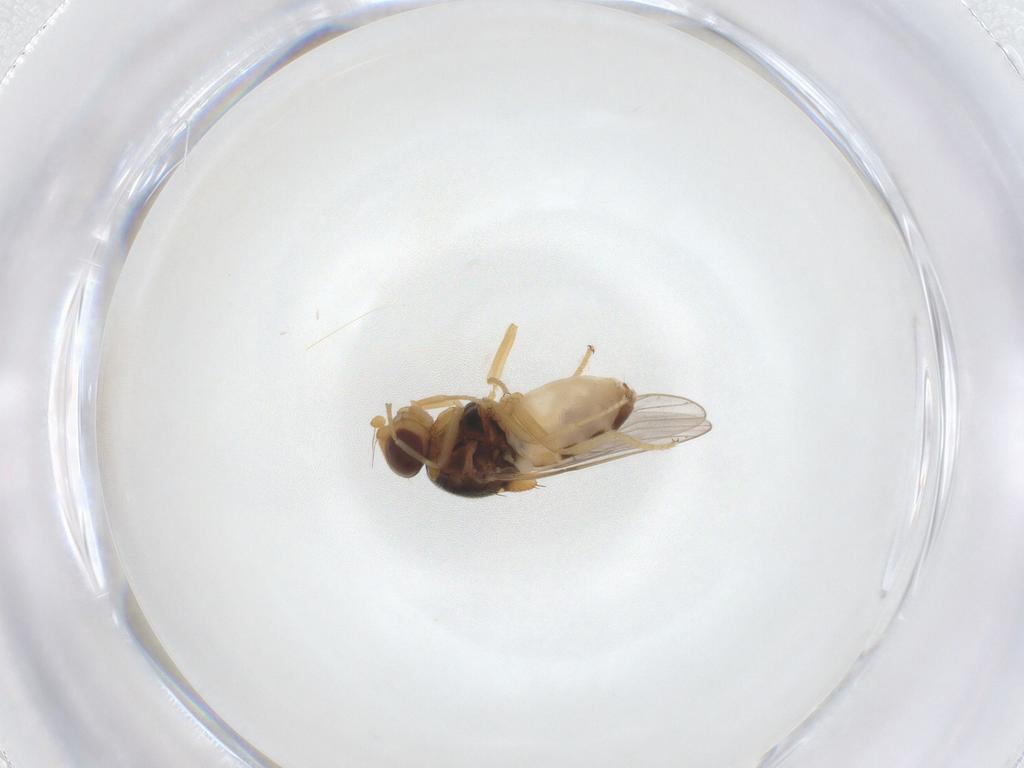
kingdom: Animalia
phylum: Arthropoda
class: Insecta
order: Diptera
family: Chloropidae
